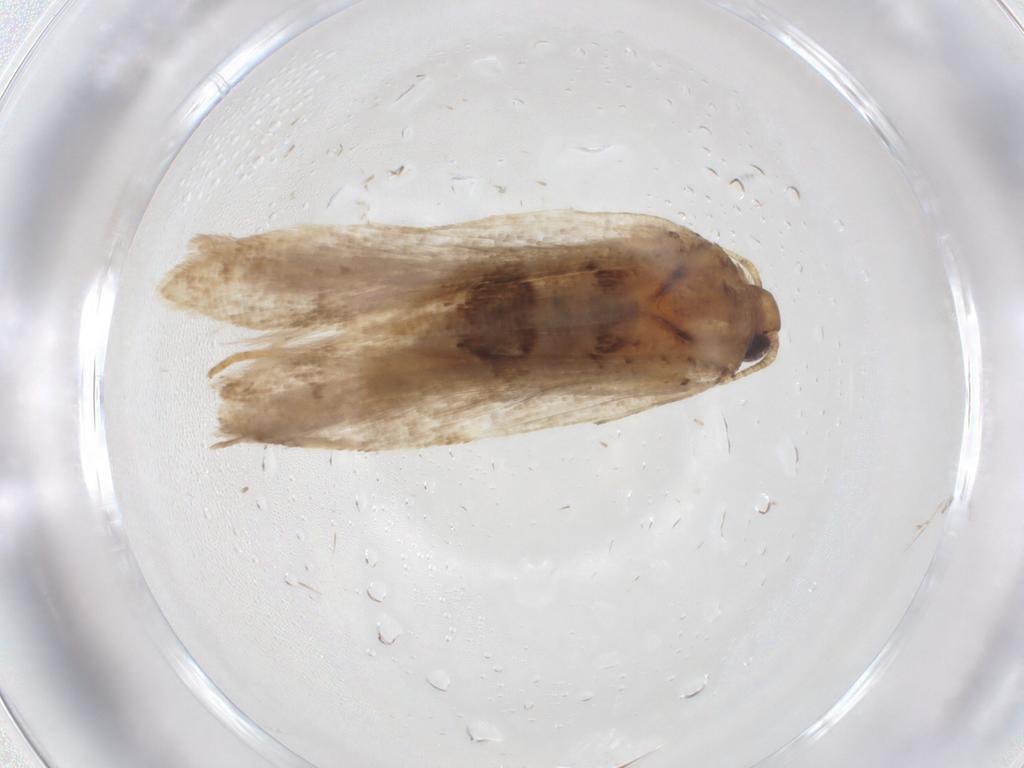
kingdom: Animalia
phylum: Arthropoda
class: Insecta
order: Lepidoptera
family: Gelechiidae
